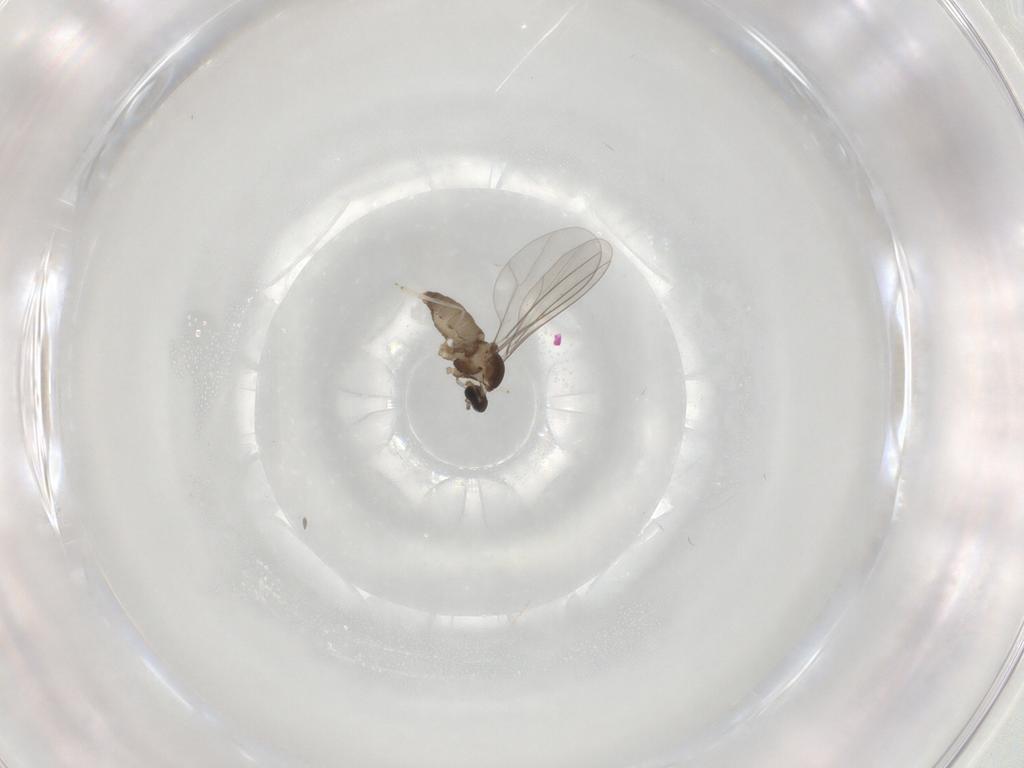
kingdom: Animalia
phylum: Arthropoda
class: Insecta
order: Diptera
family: Cecidomyiidae
